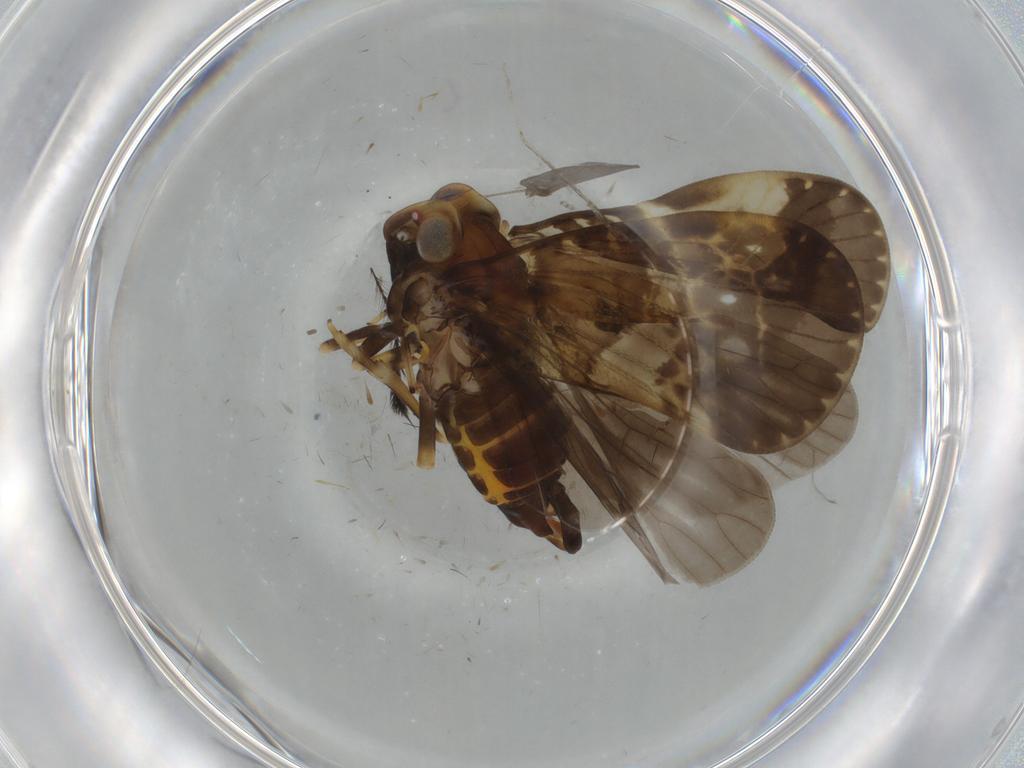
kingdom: Animalia
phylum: Arthropoda
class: Insecta
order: Hemiptera
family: Cixiidae
